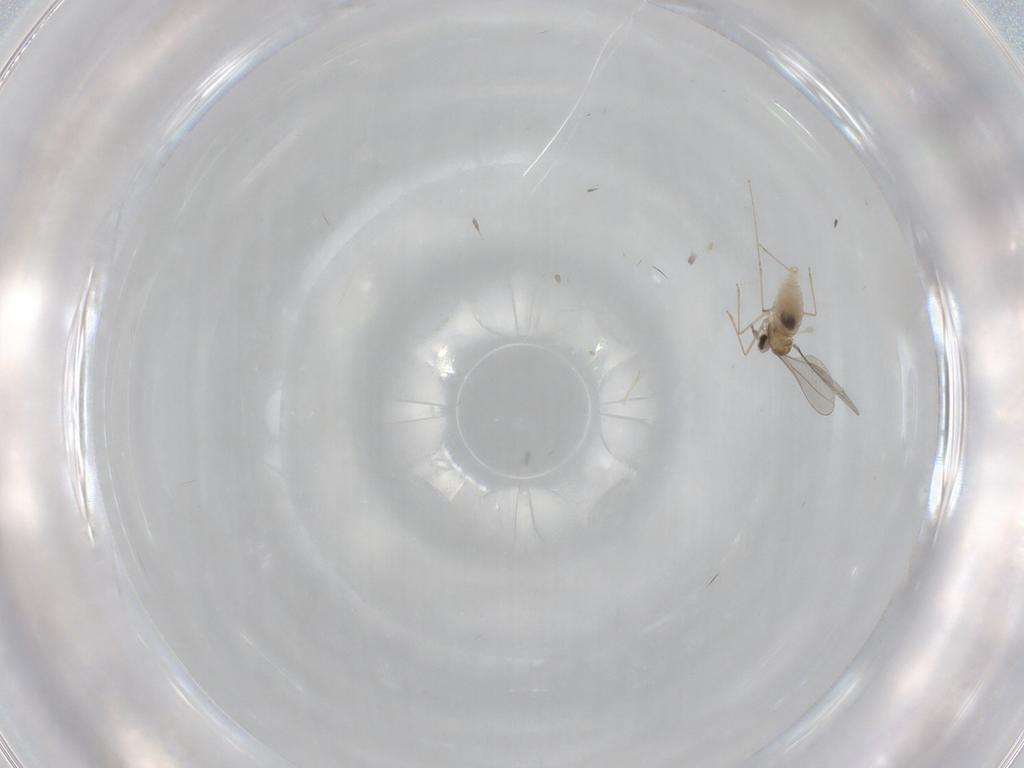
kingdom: Animalia
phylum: Arthropoda
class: Insecta
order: Diptera
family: Cecidomyiidae
